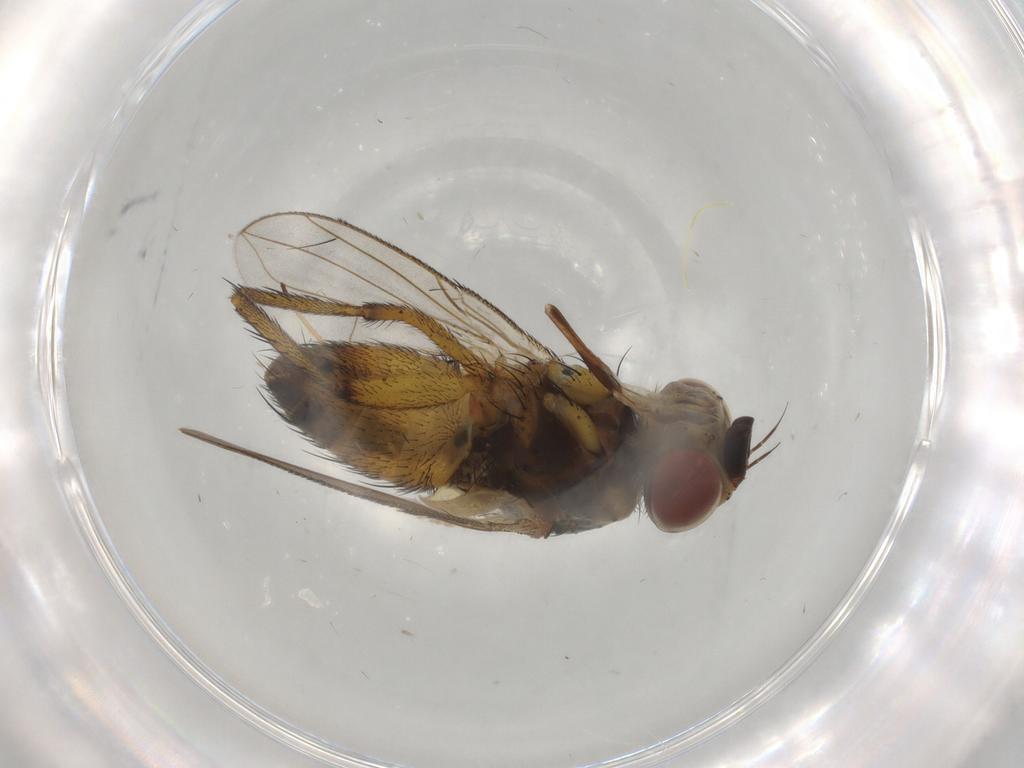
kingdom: Animalia
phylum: Arthropoda
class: Insecta
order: Diptera
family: Tachinidae
